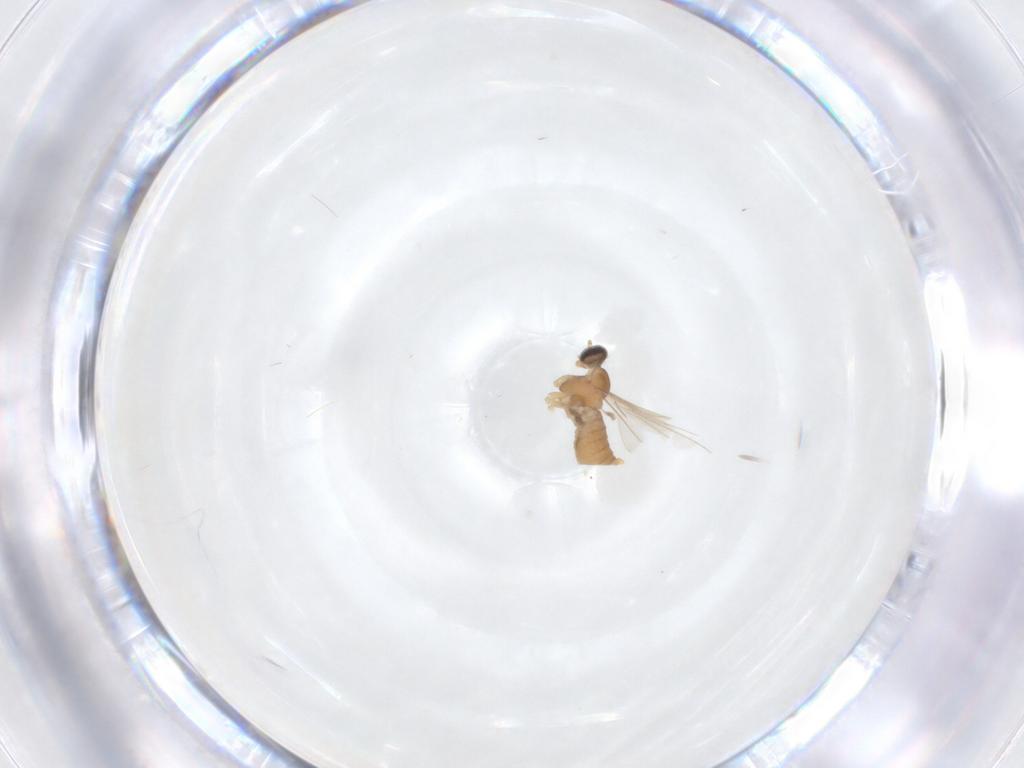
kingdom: Animalia
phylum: Arthropoda
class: Insecta
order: Diptera
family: Cecidomyiidae
